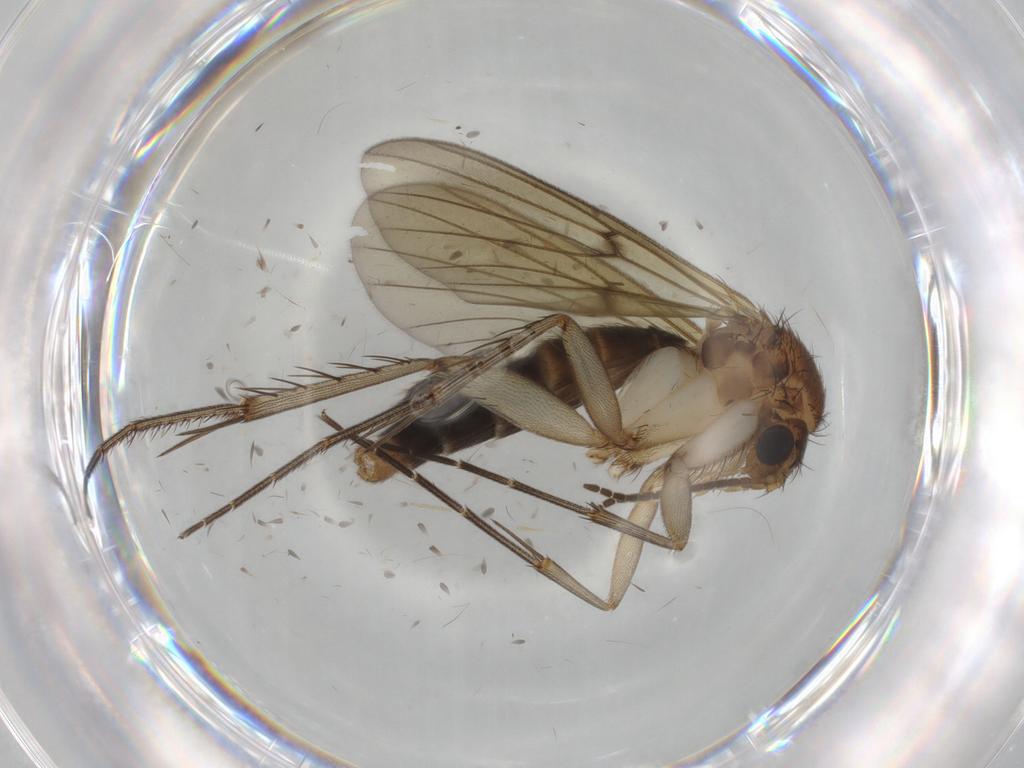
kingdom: Animalia
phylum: Arthropoda
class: Insecta
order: Diptera
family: Mycetophilidae
